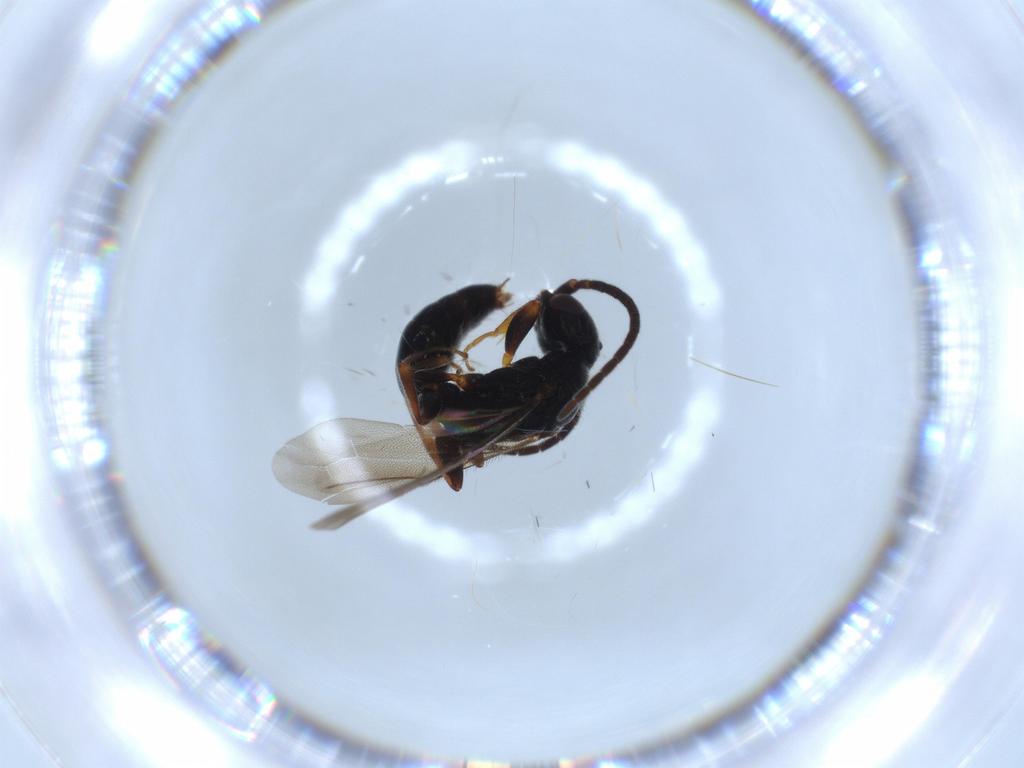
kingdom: Animalia
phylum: Arthropoda
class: Insecta
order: Hymenoptera
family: Bethylidae
